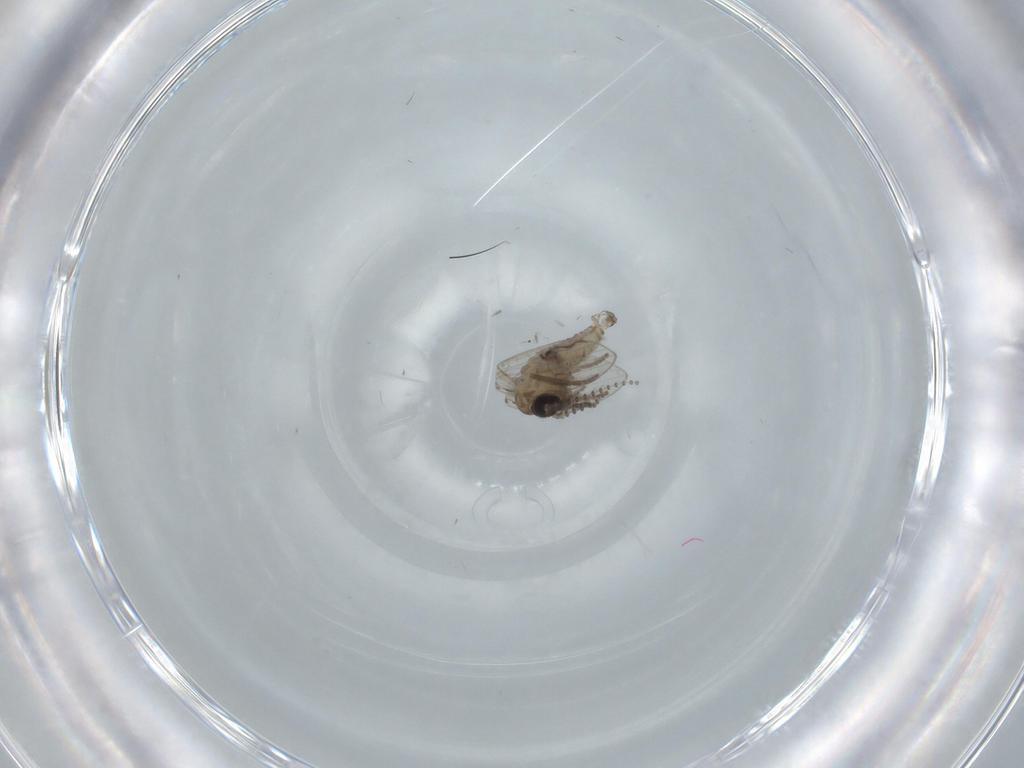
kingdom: Animalia
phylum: Arthropoda
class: Insecta
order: Diptera
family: Psychodidae
